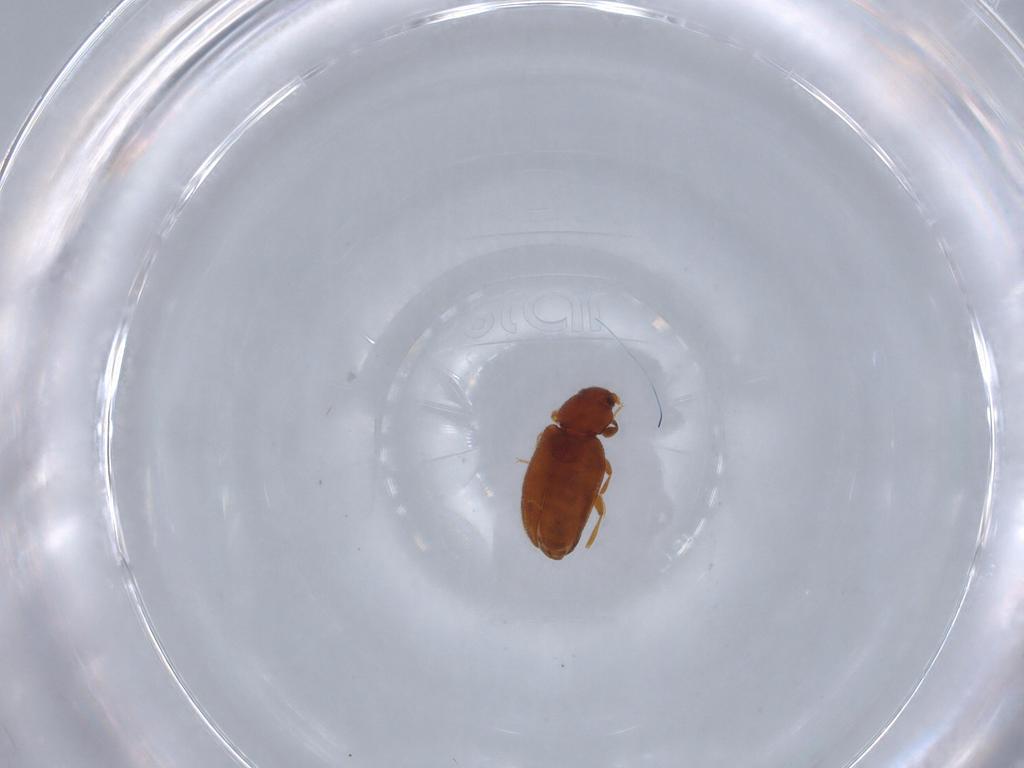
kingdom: Animalia
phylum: Arthropoda
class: Insecta
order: Coleoptera
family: Latridiidae
